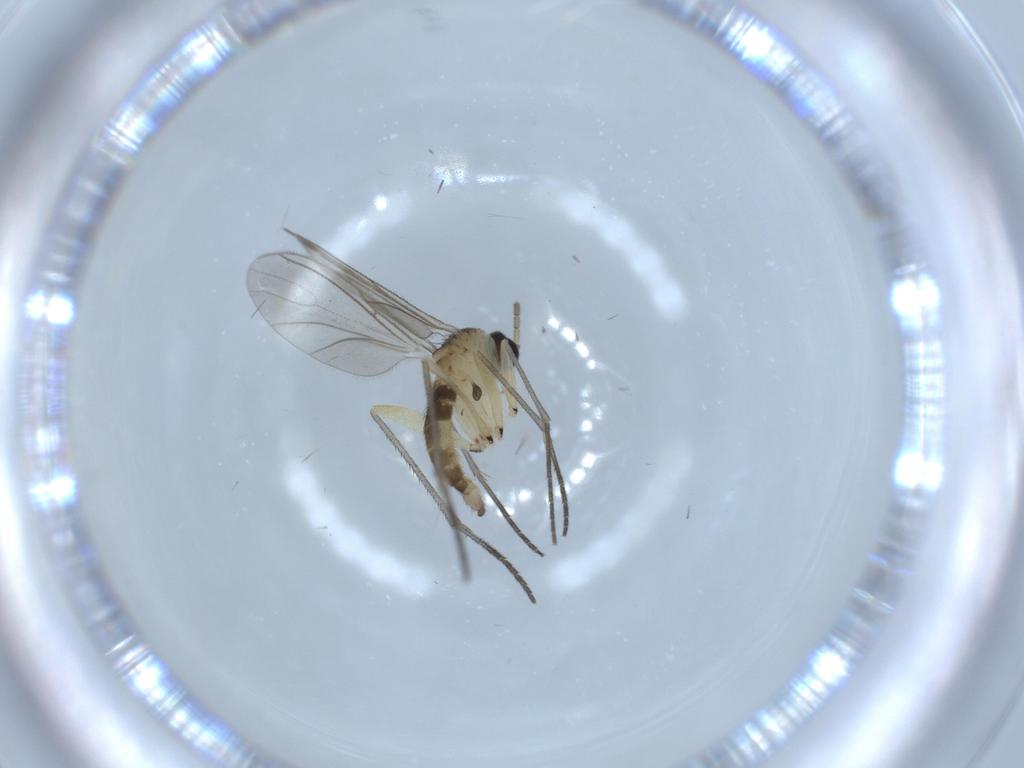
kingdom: Animalia
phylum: Arthropoda
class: Insecta
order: Diptera
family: Sciaridae
